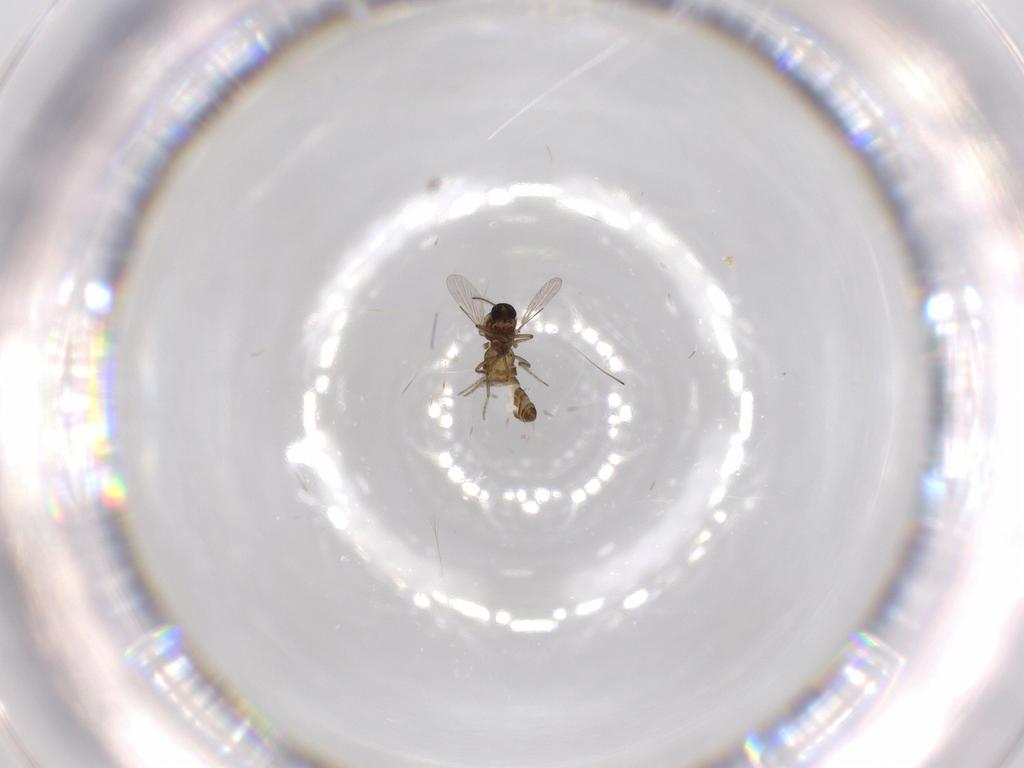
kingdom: Animalia
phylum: Arthropoda
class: Insecta
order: Diptera
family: Chironomidae
